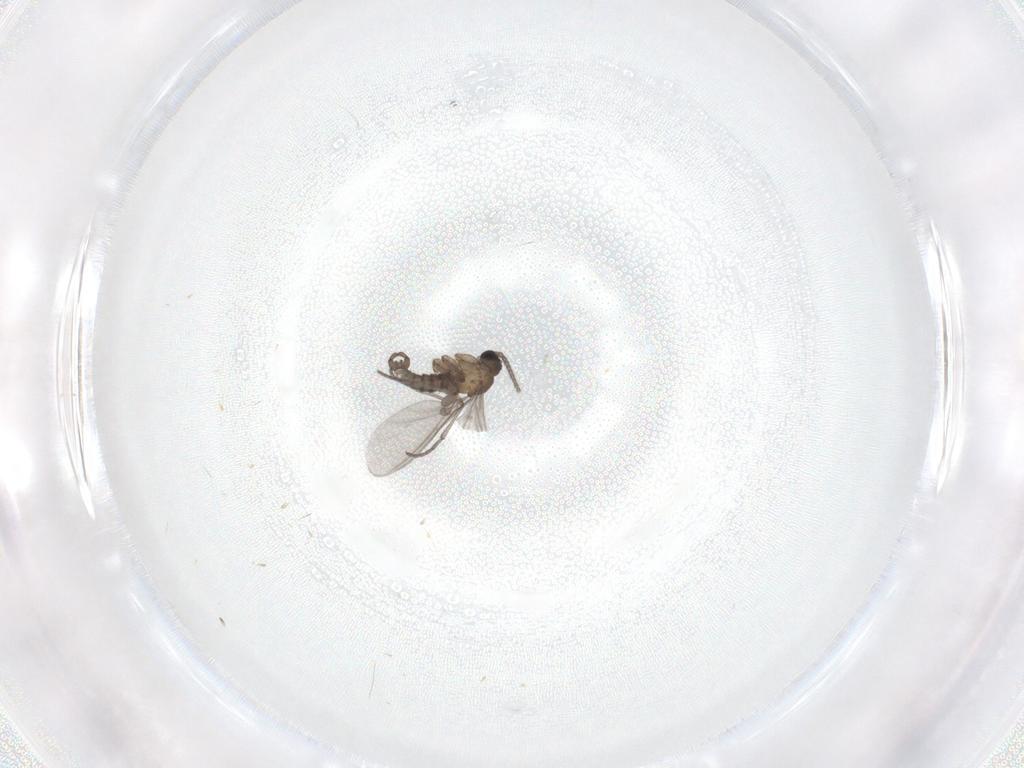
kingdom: Animalia
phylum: Arthropoda
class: Insecta
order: Diptera
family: Sciaridae
